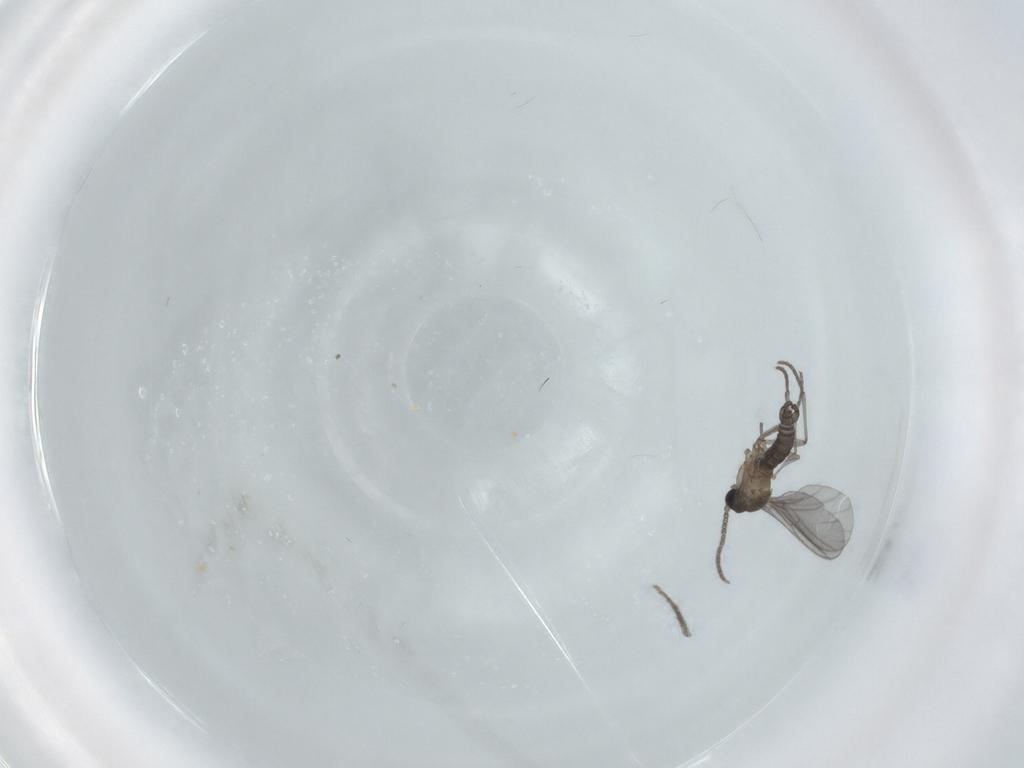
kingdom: Animalia
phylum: Arthropoda
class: Insecta
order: Diptera
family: Sciaridae
